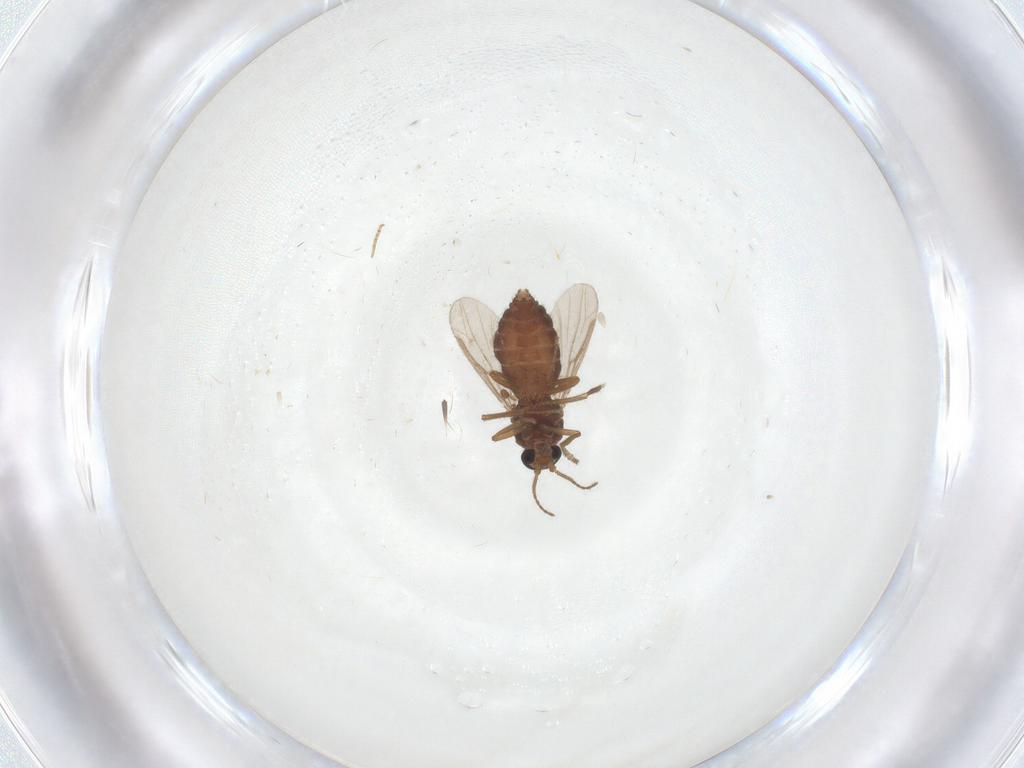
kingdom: Animalia
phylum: Arthropoda
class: Insecta
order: Diptera
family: Ceratopogonidae
